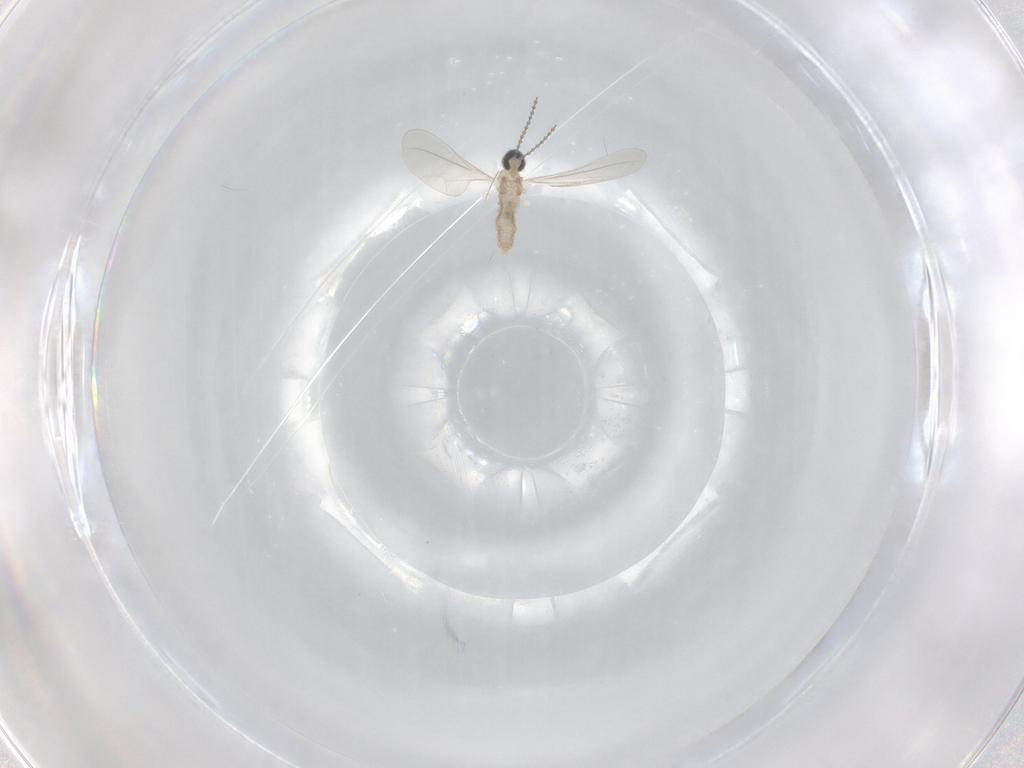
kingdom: Animalia
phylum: Arthropoda
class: Insecta
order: Diptera
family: Cecidomyiidae
